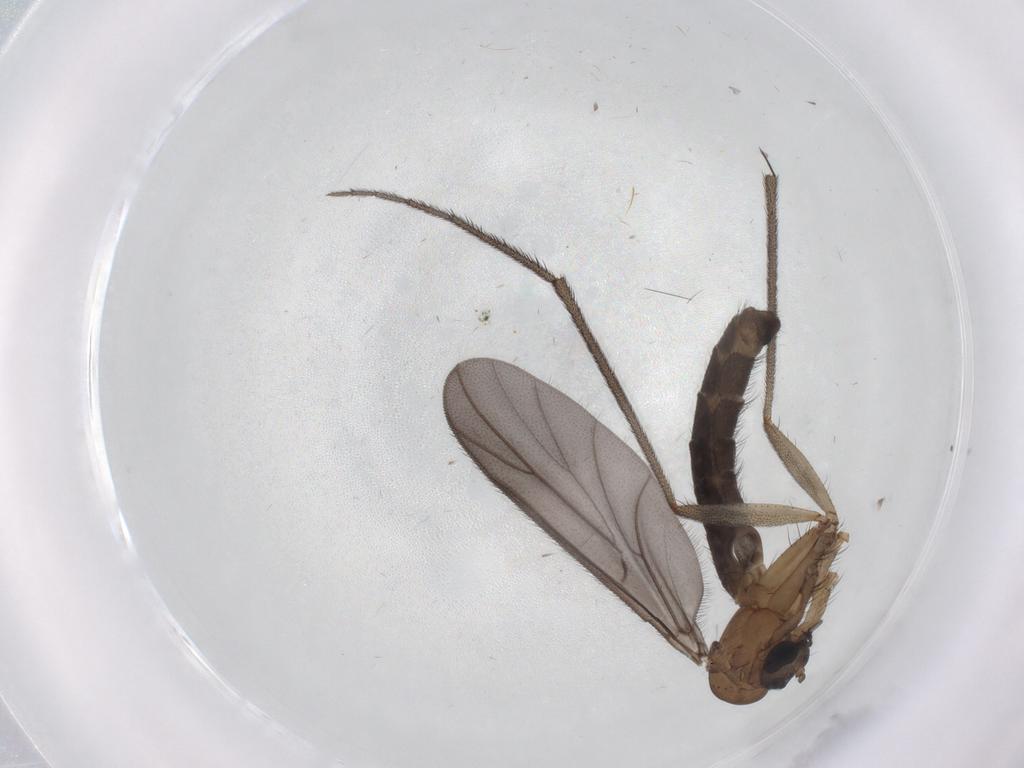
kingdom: Animalia
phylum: Arthropoda
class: Insecta
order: Diptera
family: Cecidomyiidae
